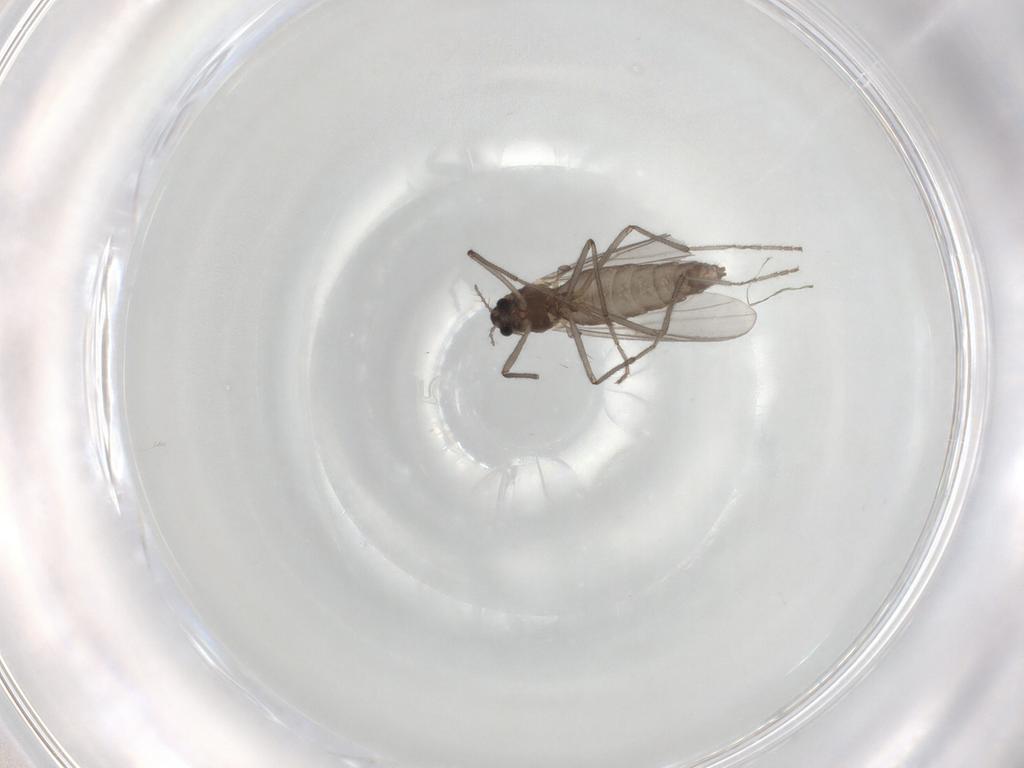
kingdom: Animalia
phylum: Arthropoda
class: Insecta
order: Diptera
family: Chironomidae
